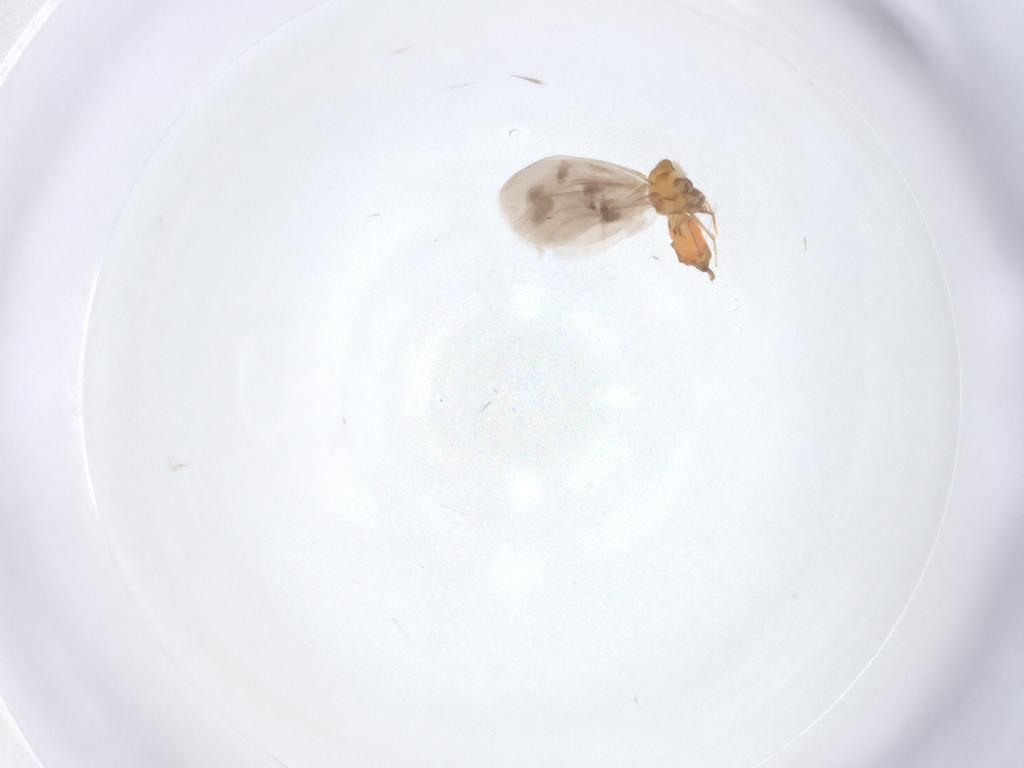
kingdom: Animalia
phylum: Arthropoda
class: Insecta
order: Hemiptera
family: Aleyrodidae
